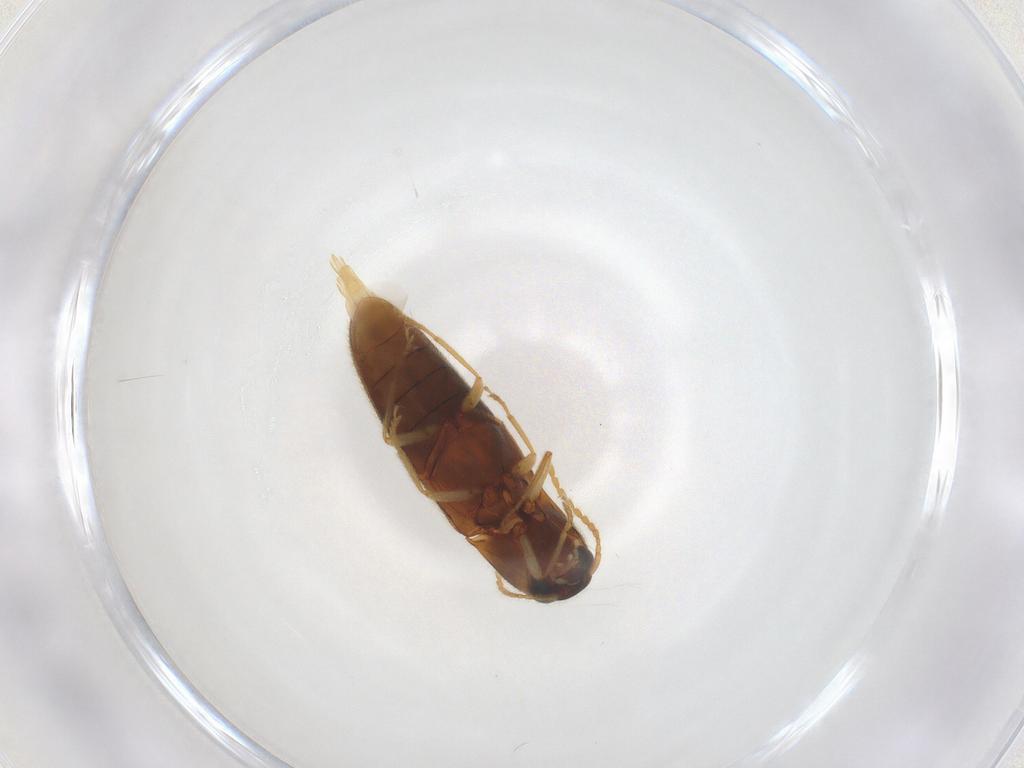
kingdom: Animalia
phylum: Arthropoda
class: Insecta
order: Coleoptera
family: Elateridae
